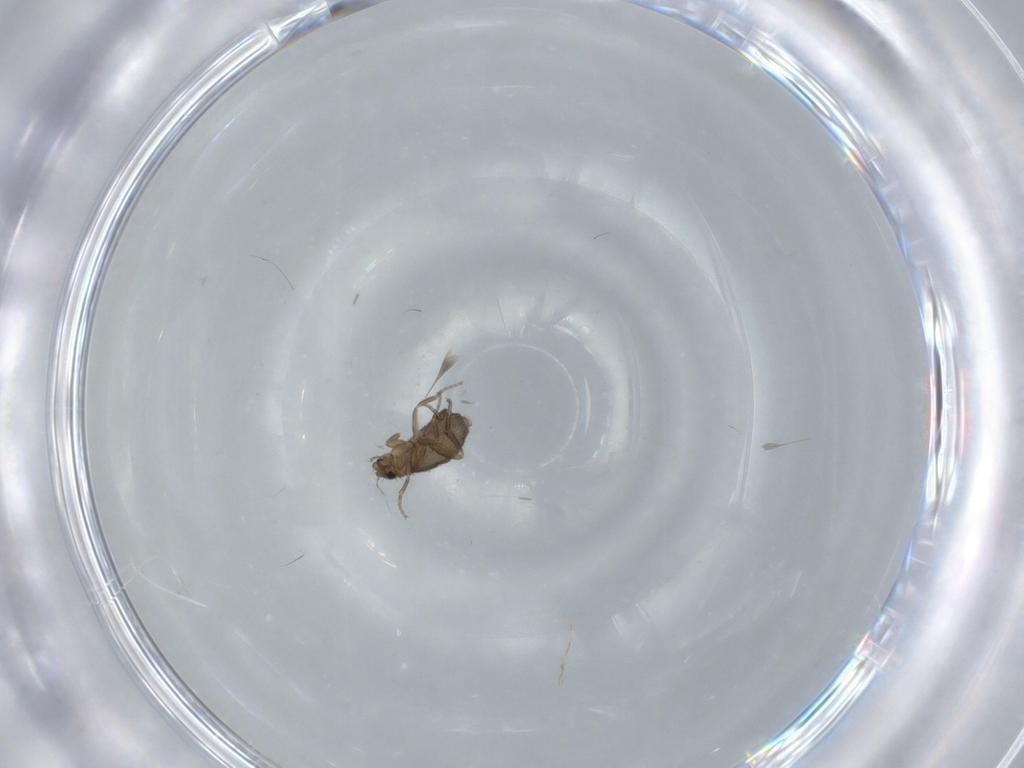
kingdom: Animalia
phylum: Arthropoda
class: Insecta
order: Diptera
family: Phoridae
